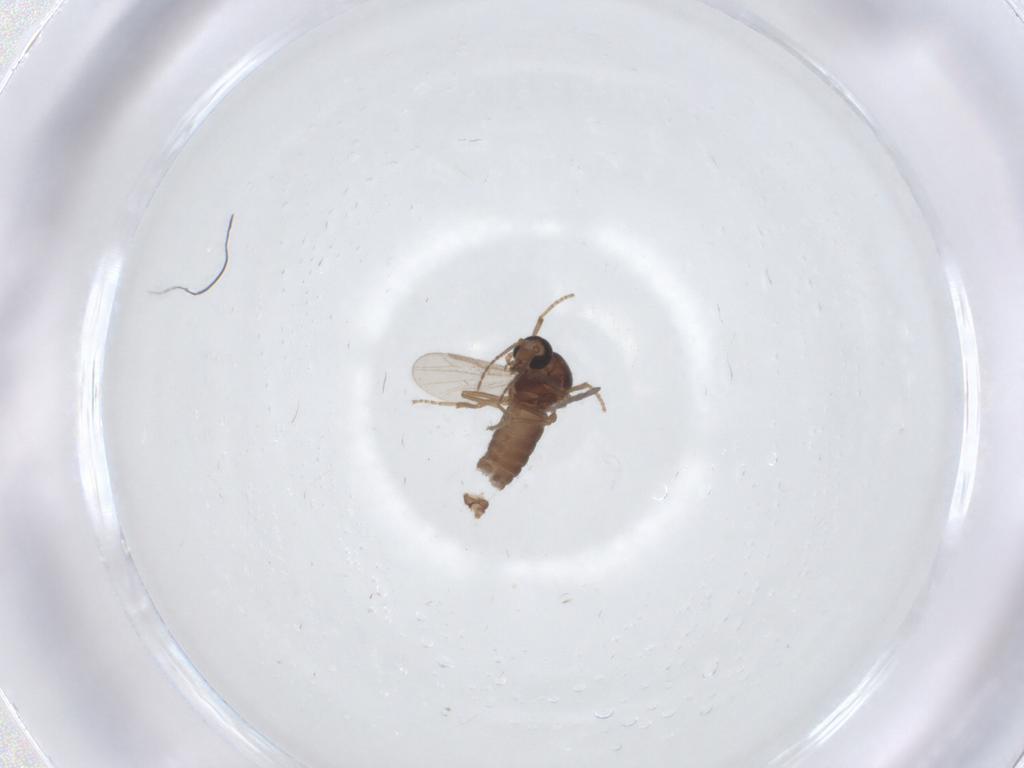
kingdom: Animalia
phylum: Arthropoda
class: Insecta
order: Diptera
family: Ceratopogonidae
